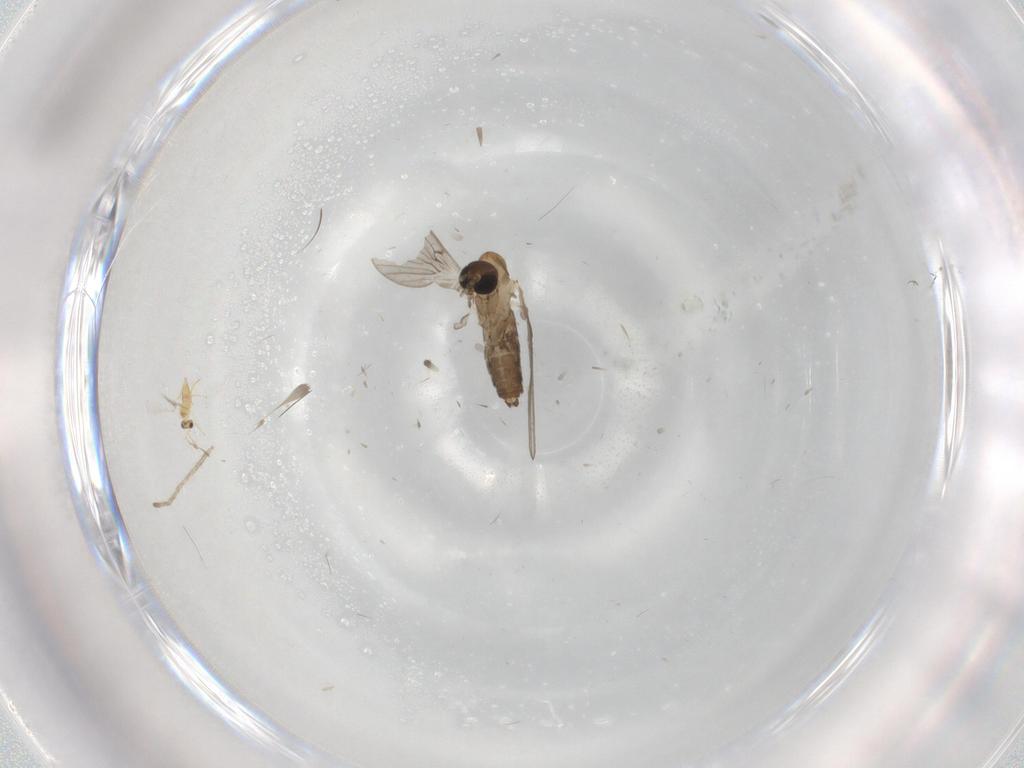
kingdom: Animalia
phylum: Arthropoda
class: Insecta
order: Diptera
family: Psychodidae
